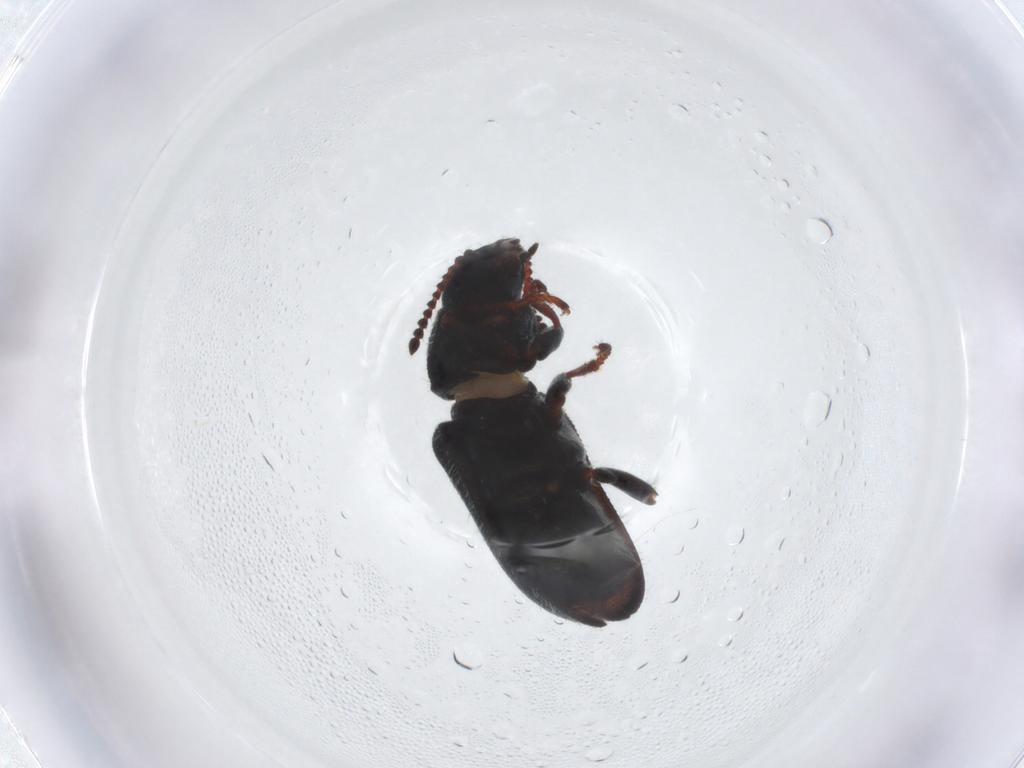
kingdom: Animalia
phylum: Arthropoda
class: Insecta
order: Coleoptera
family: Melyridae
